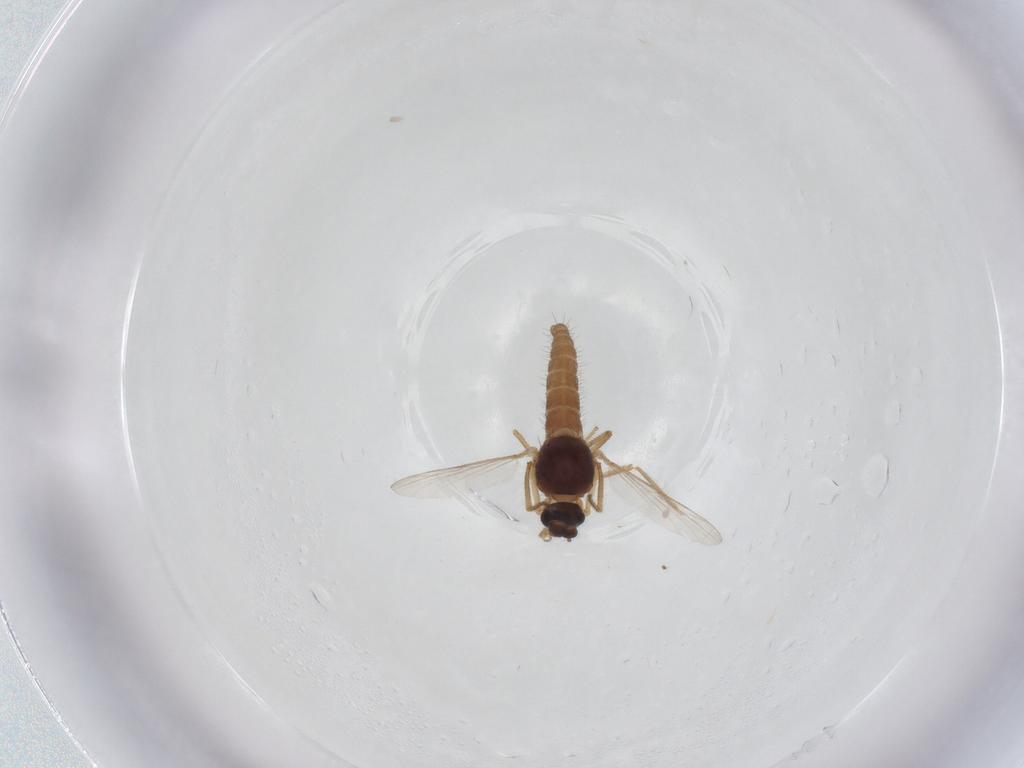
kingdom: Animalia
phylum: Arthropoda
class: Insecta
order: Diptera
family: Ceratopogonidae
